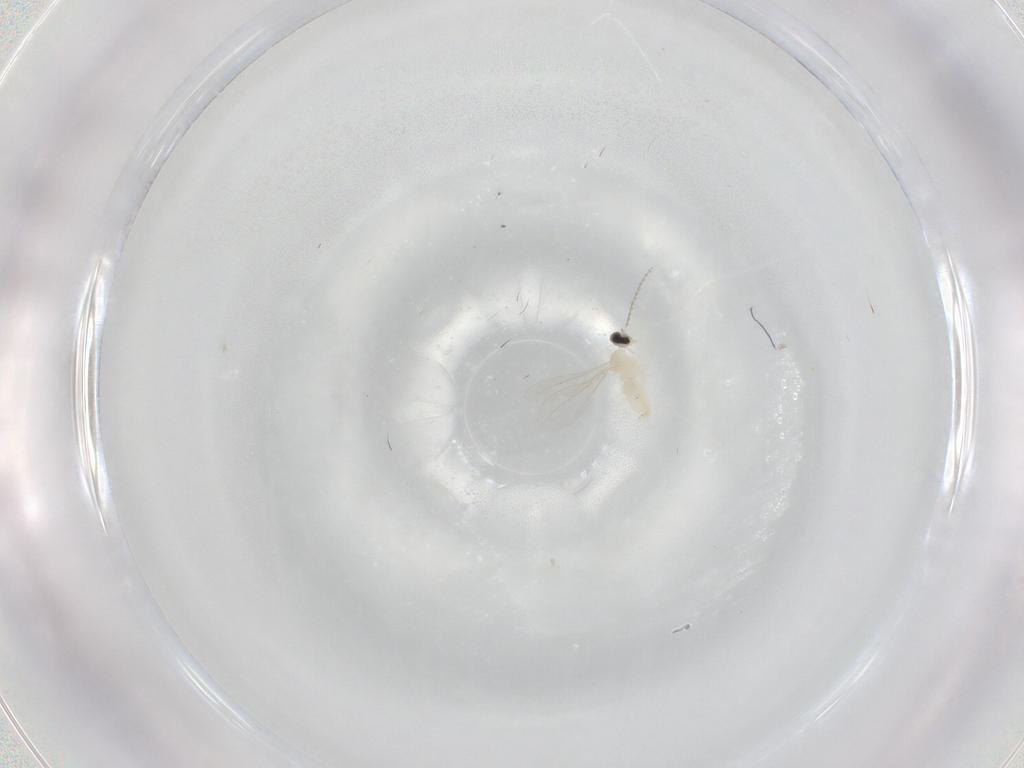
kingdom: Animalia
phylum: Arthropoda
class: Insecta
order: Diptera
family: Cecidomyiidae
